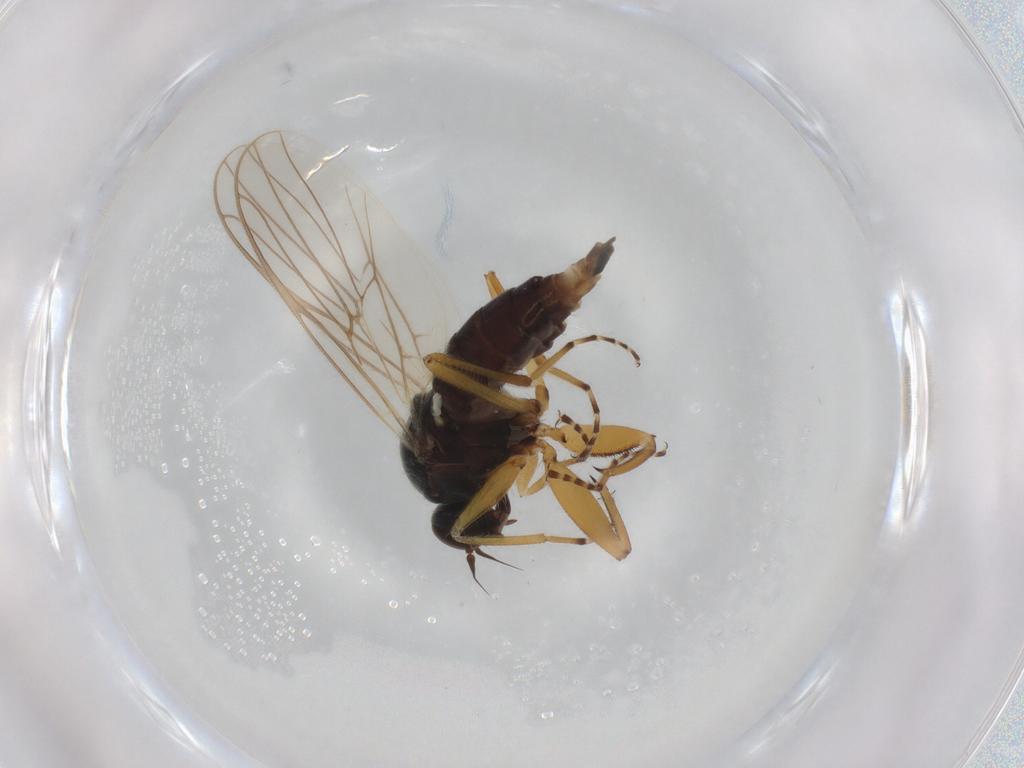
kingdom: Animalia
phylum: Arthropoda
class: Insecta
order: Diptera
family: Hybotidae
